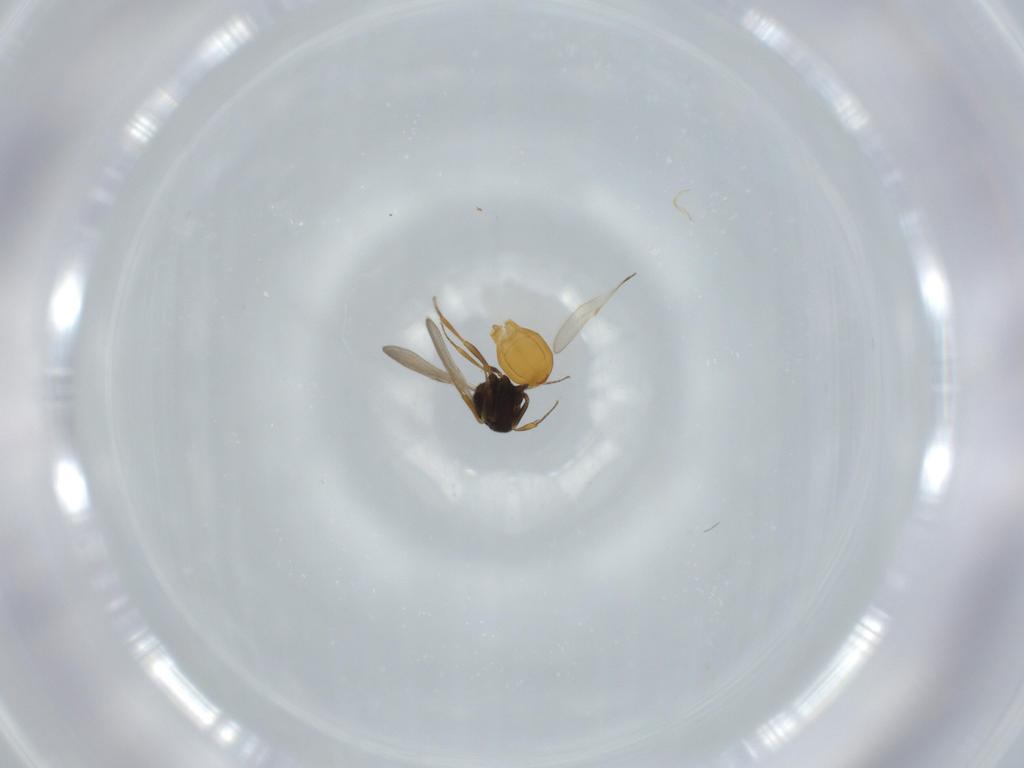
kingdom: Animalia
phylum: Arthropoda
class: Insecta
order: Hymenoptera
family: Scelionidae
